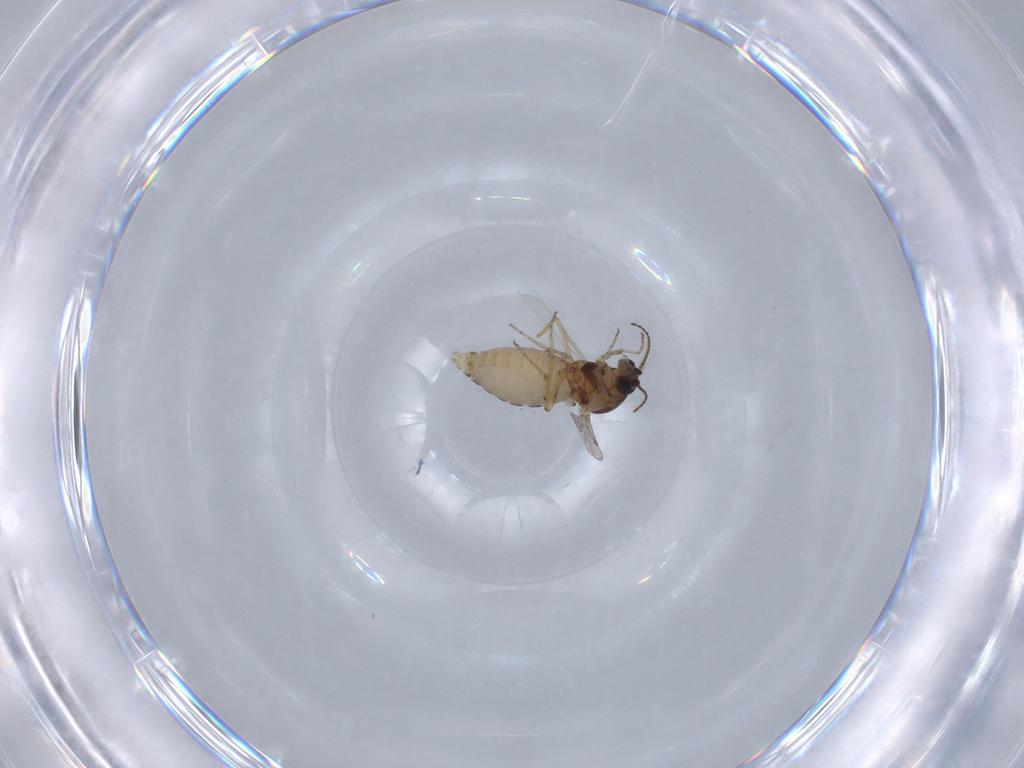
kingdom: Animalia
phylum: Arthropoda
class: Insecta
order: Diptera
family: Ceratopogonidae
